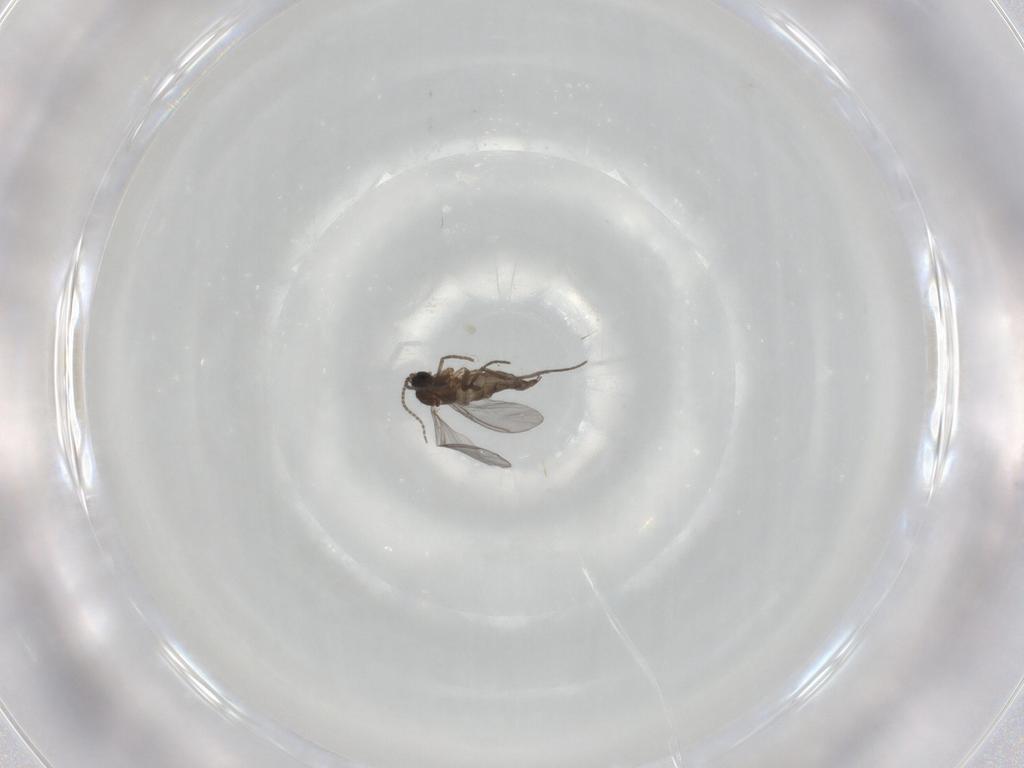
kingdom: Animalia
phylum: Arthropoda
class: Insecta
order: Diptera
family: Sciaridae
